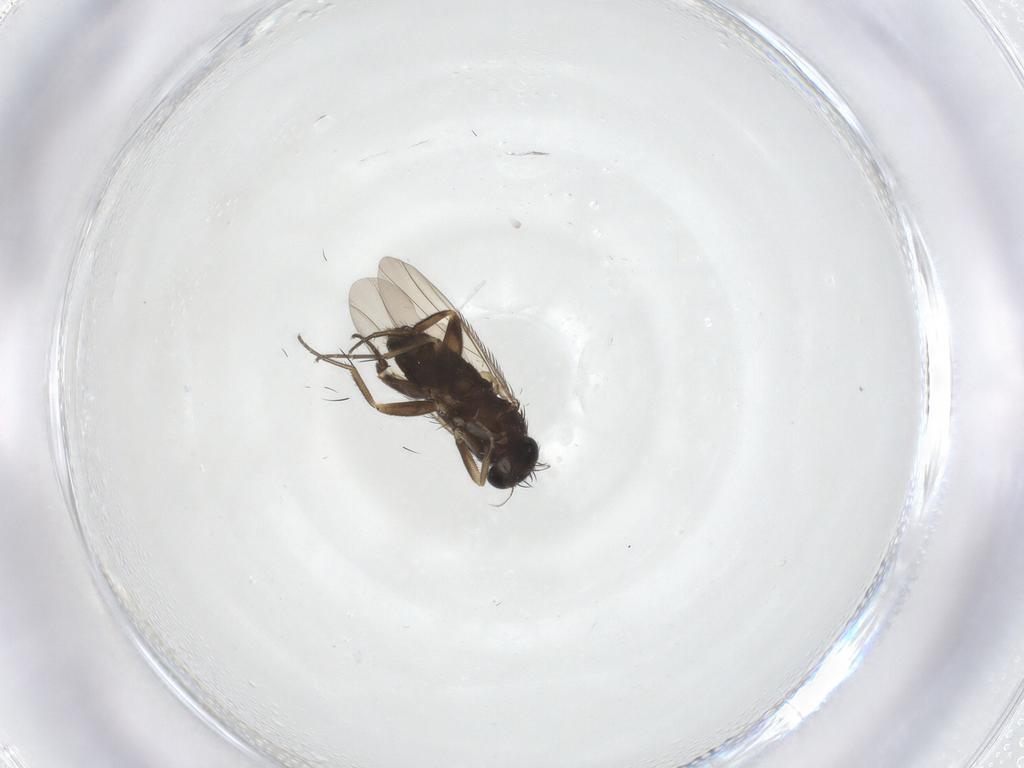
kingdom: Animalia
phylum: Arthropoda
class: Insecta
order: Diptera
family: Phoridae
